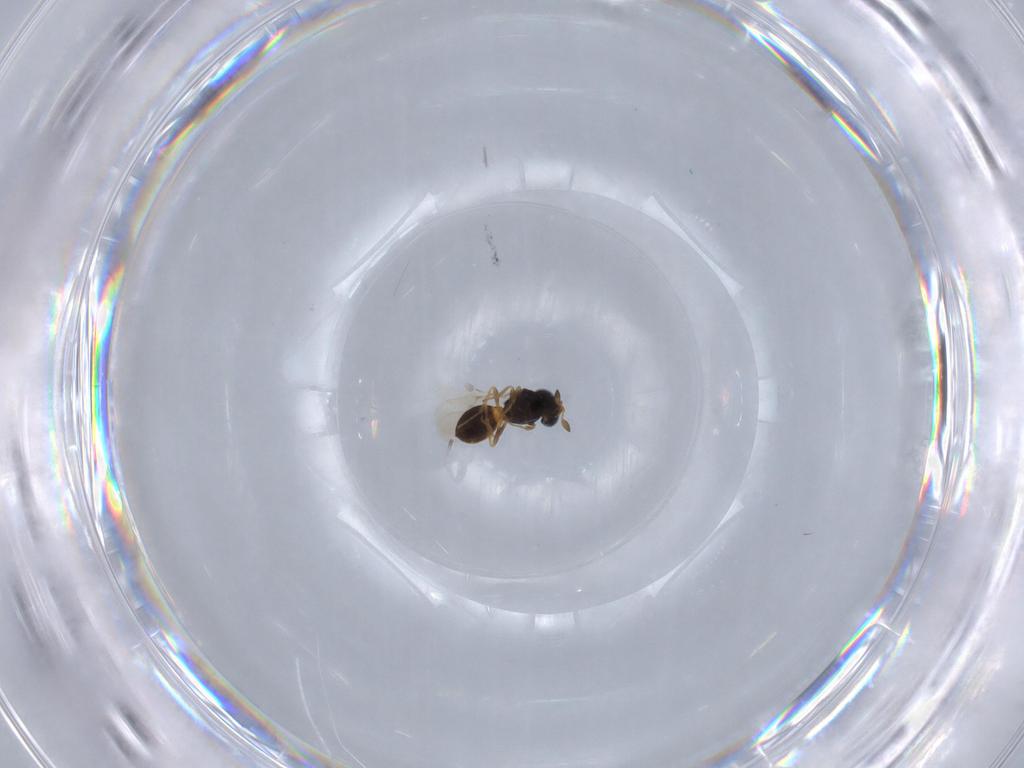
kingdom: Animalia
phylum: Arthropoda
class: Insecta
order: Hymenoptera
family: Scelionidae
